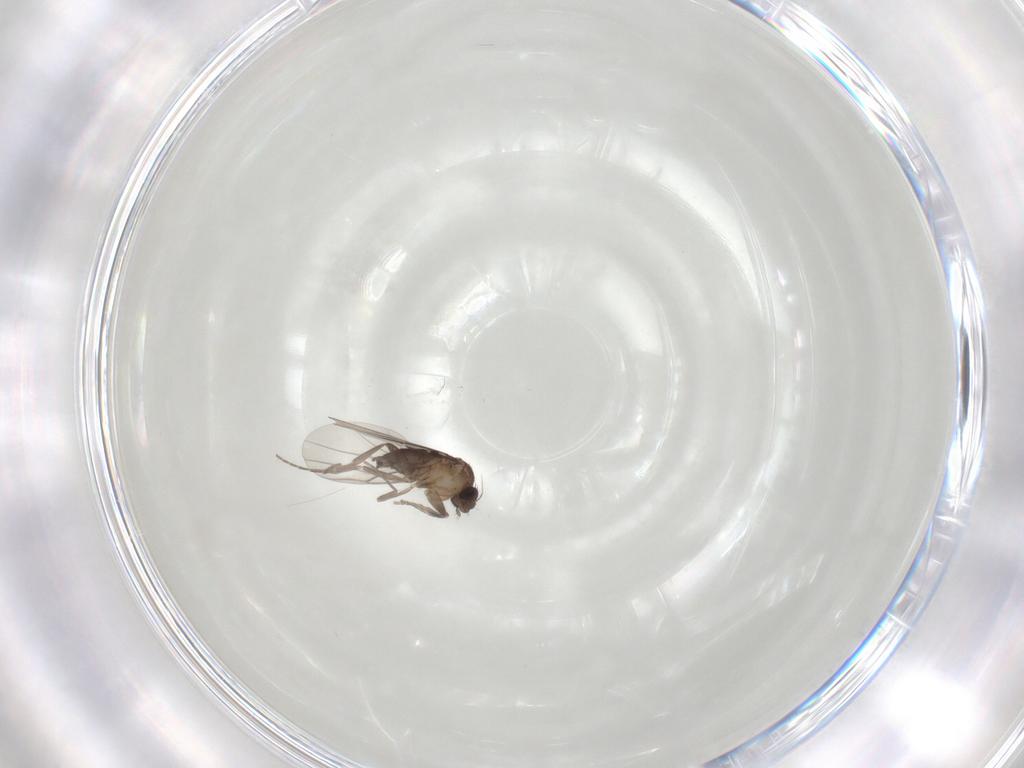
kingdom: Animalia
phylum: Arthropoda
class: Insecta
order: Diptera
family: Phoridae
